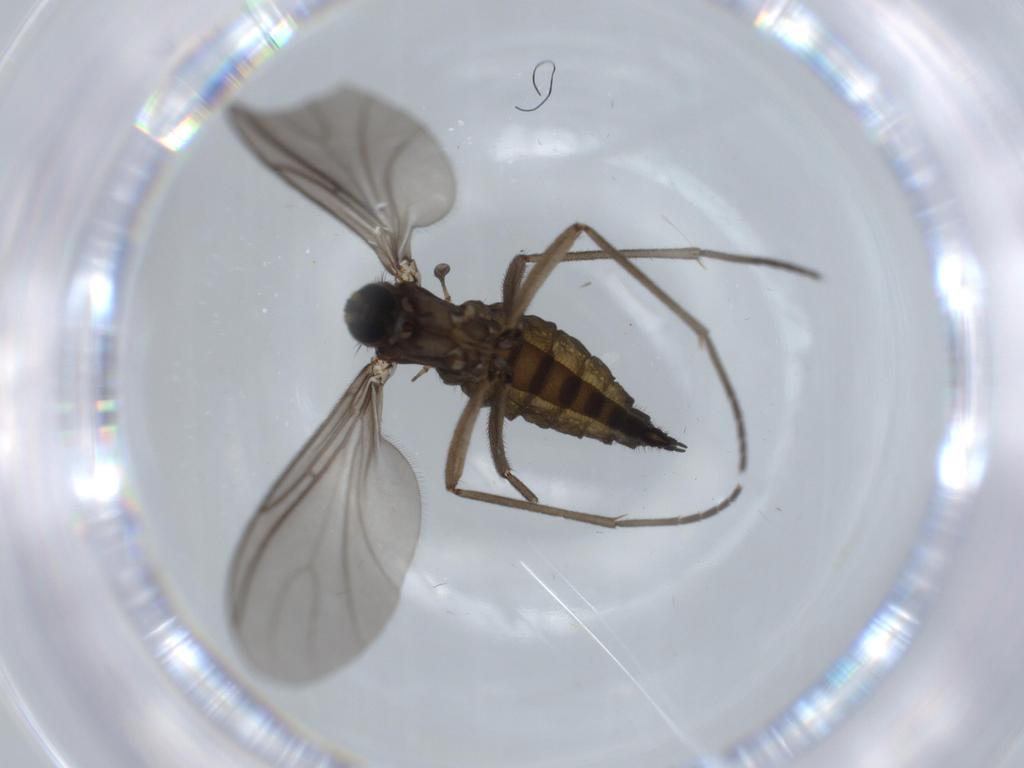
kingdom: Animalia
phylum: Arthropoda
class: Insecta
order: Diptera
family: Sciaridae
